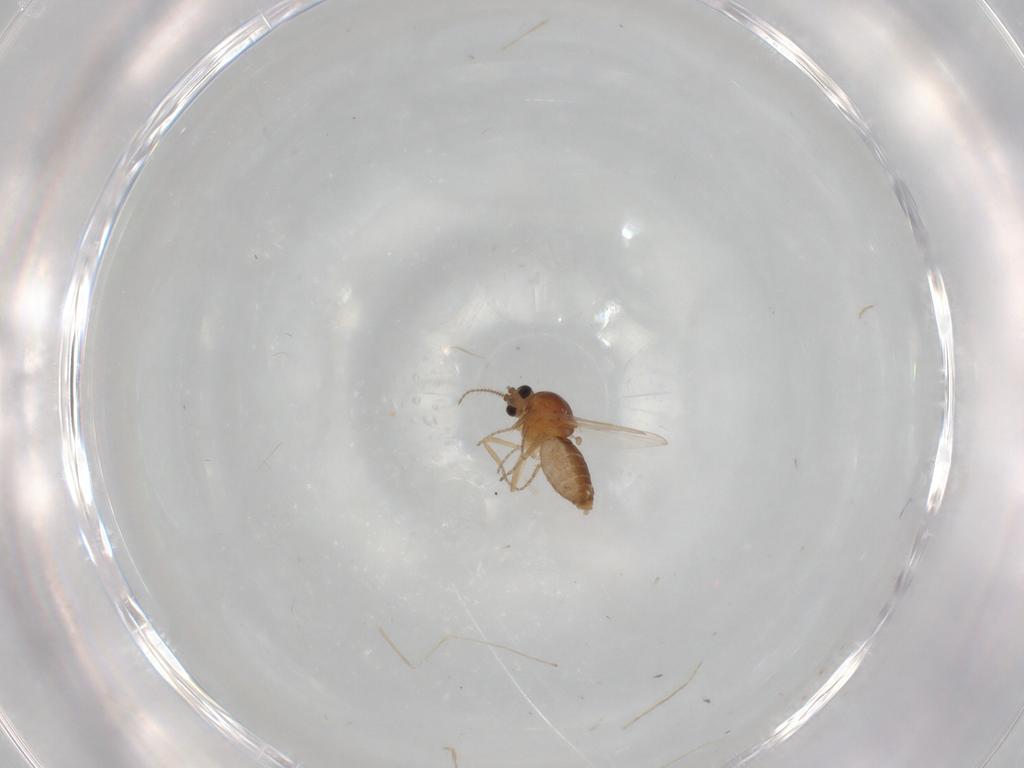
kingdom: Animalia
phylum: Arthropoda
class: Insecta
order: Diptera
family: Ceratopogonidae
